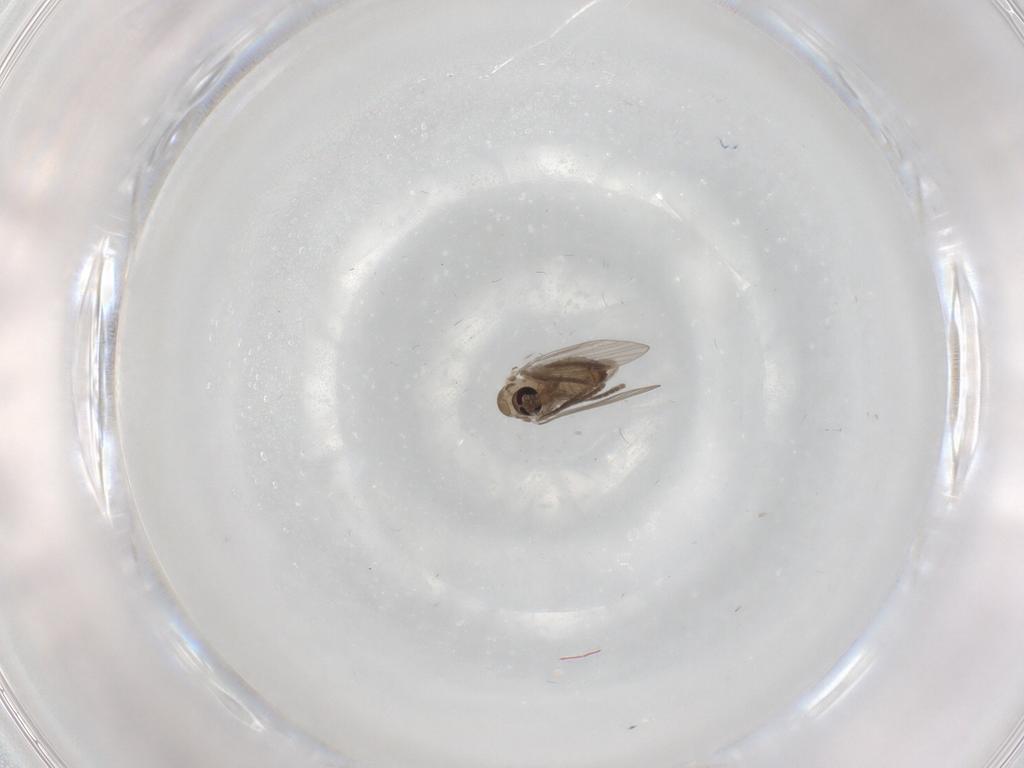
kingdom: Animalia
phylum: Arthropoda
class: Insecta
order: Diptera
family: Psychodidae
